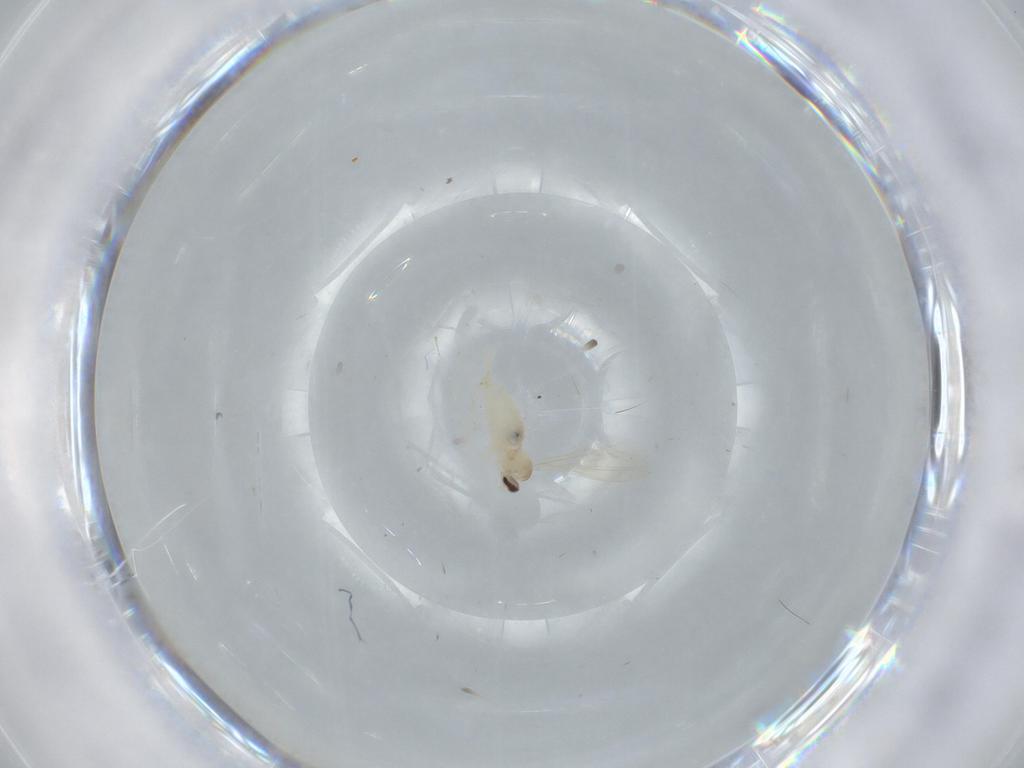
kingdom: Animalia
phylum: Arthropoda
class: Insecta
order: Diptera
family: Cecidomyiidae
